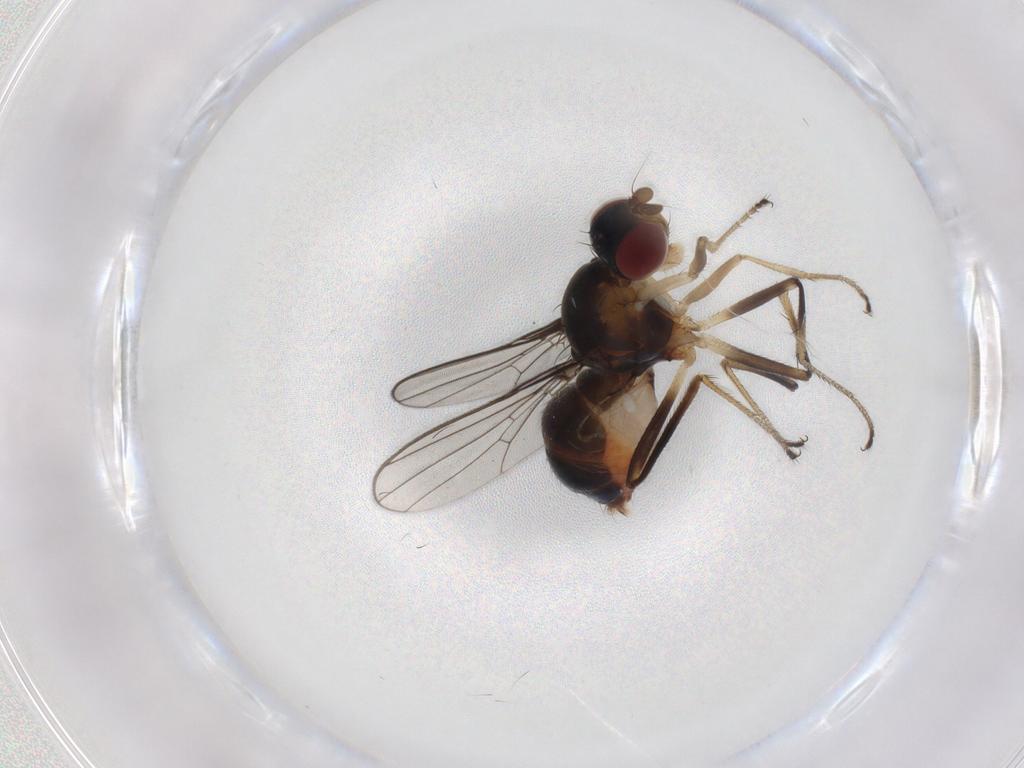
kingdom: Animalia
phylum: Arthropoda
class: Insecta
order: Diptera
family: Sepsidae
